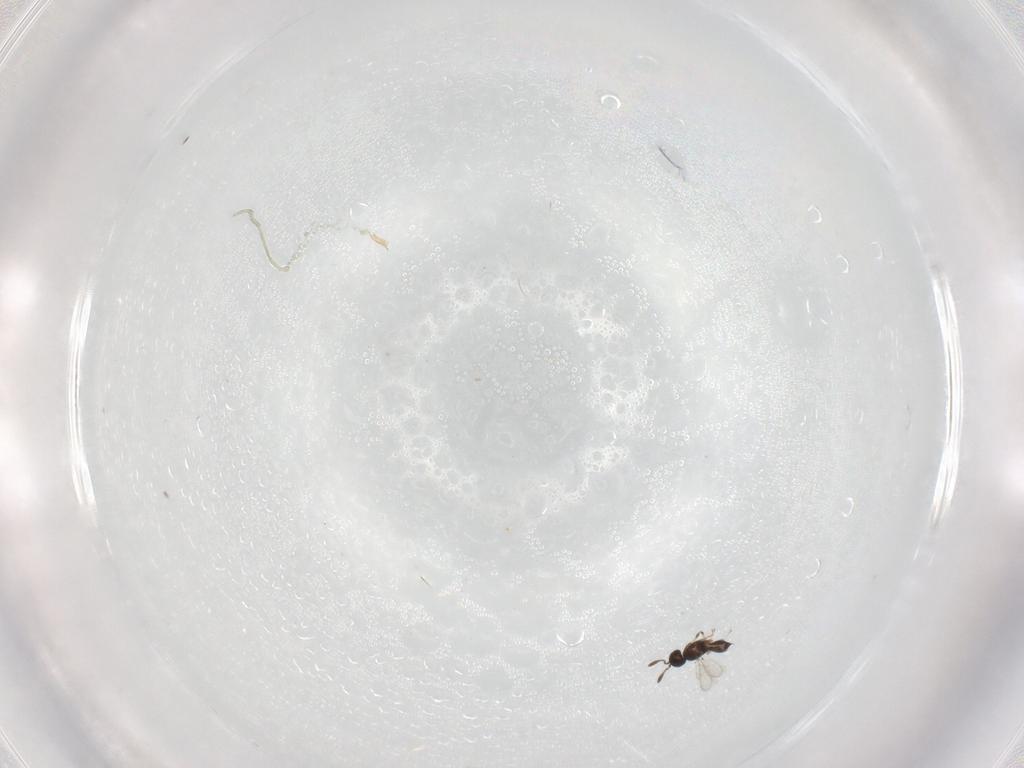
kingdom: Animalia
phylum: Arthropoda
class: Insecta
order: Hymenoptera
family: Scelionidae
